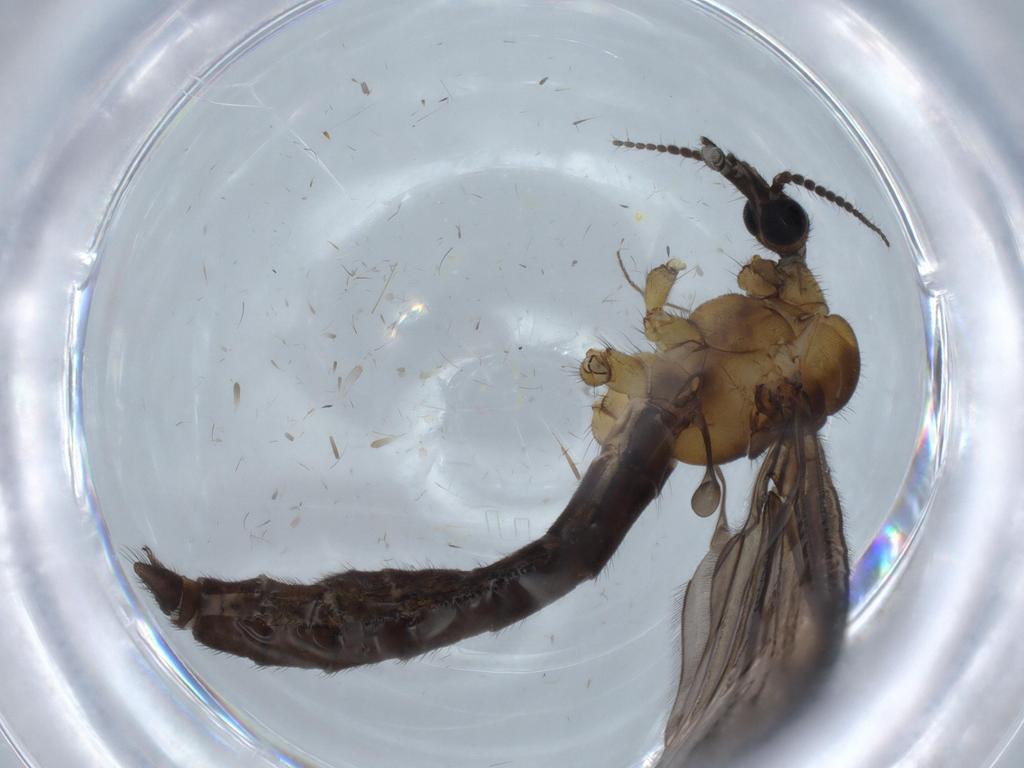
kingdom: Animalia
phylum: Arthropoda
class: Insecta
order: Diptera
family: Limoniidae
